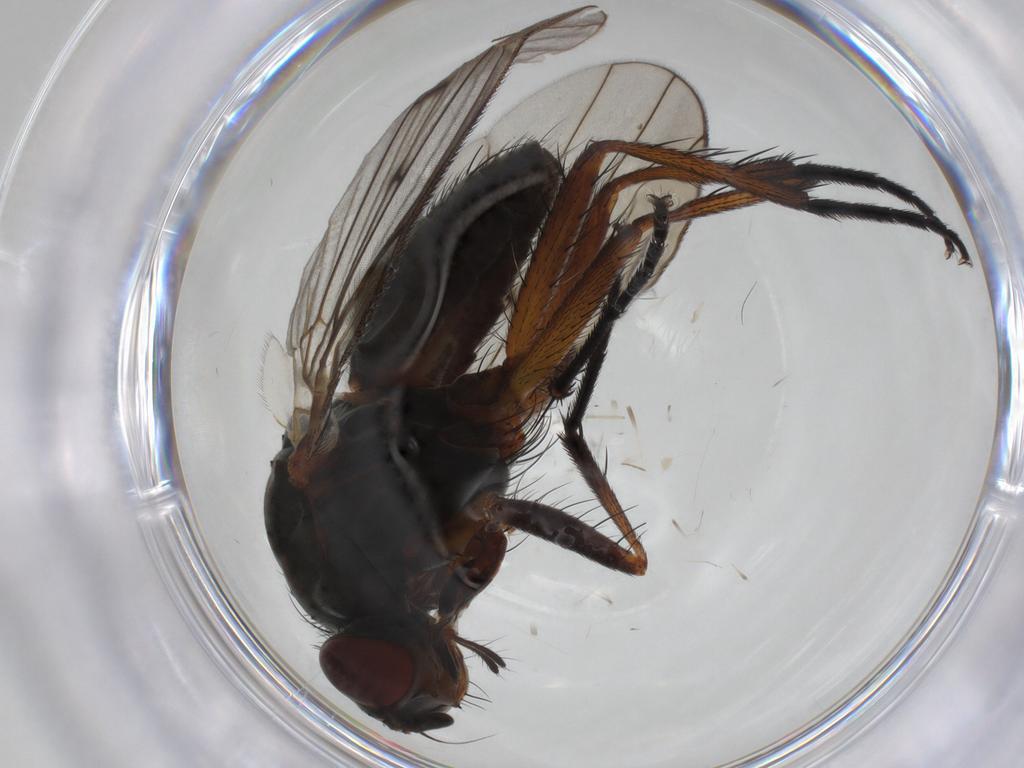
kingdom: Animalia
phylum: Arthropoda
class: Insecta
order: Diptera
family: Anthomyiidae
